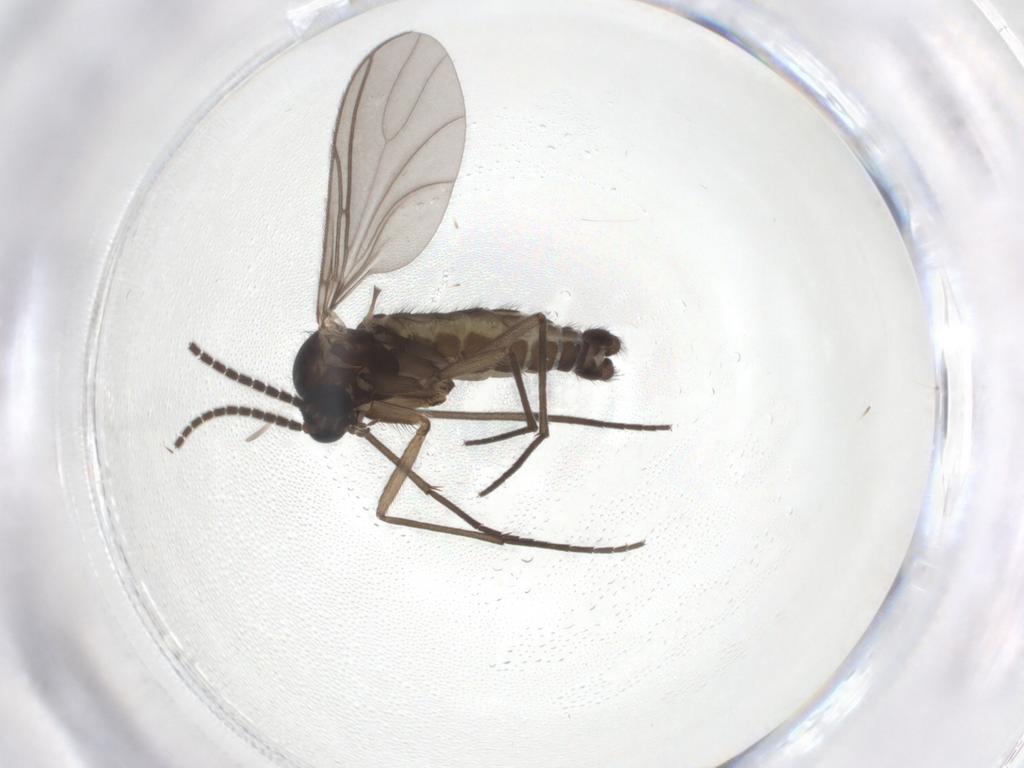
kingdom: Animalia
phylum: Arthropoda
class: Insecta
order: Diptera
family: Sciaridae
